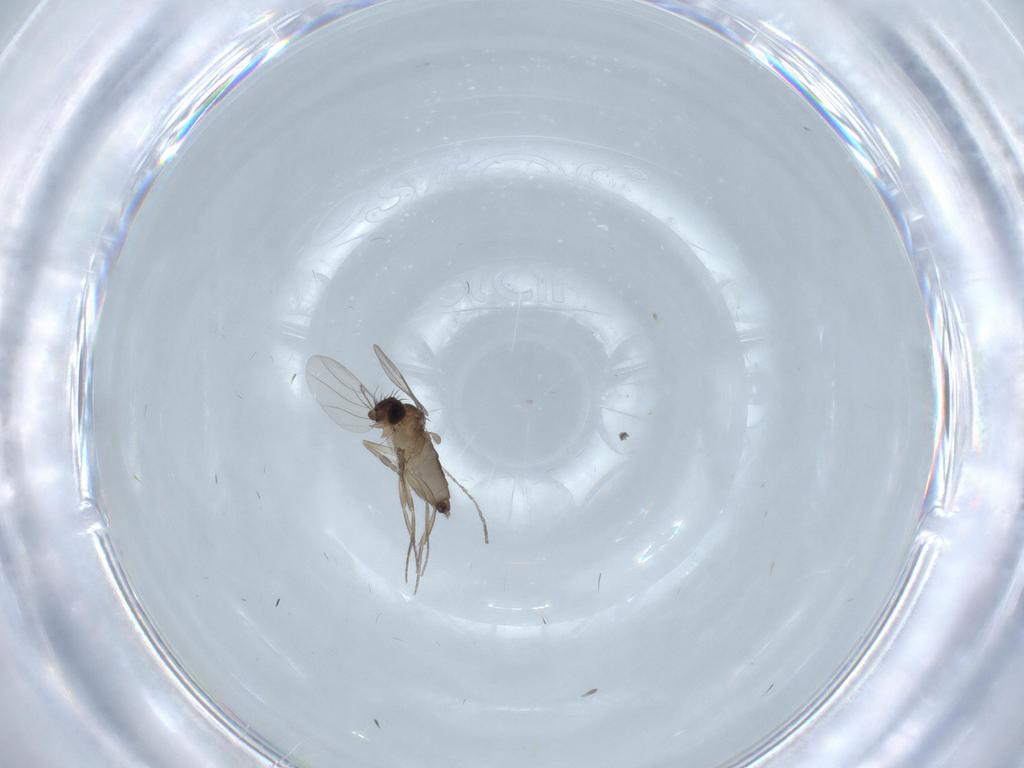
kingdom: Animalia
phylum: Arthropoda
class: Insecta
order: Diptera
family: Phoridae
